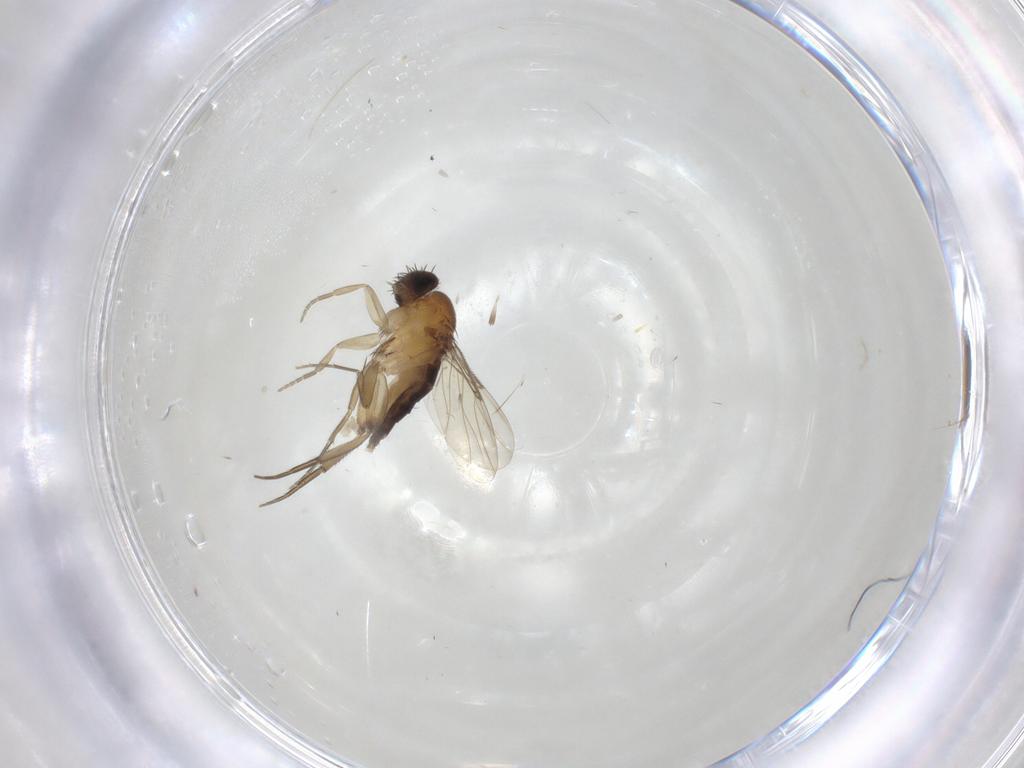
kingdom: Animalia
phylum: Arthropoda
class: Insecta
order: Diptera
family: Phoridae
